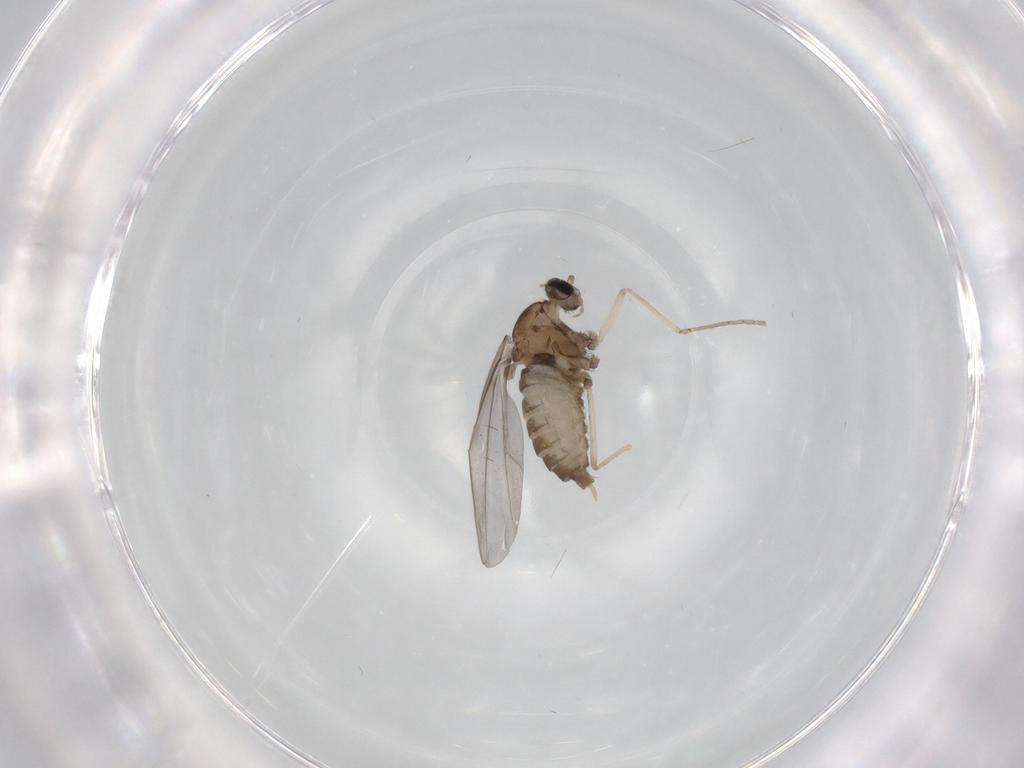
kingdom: Animalia
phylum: Arthropoda
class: Insecta
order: Diptera
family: Cecidomyiidae
